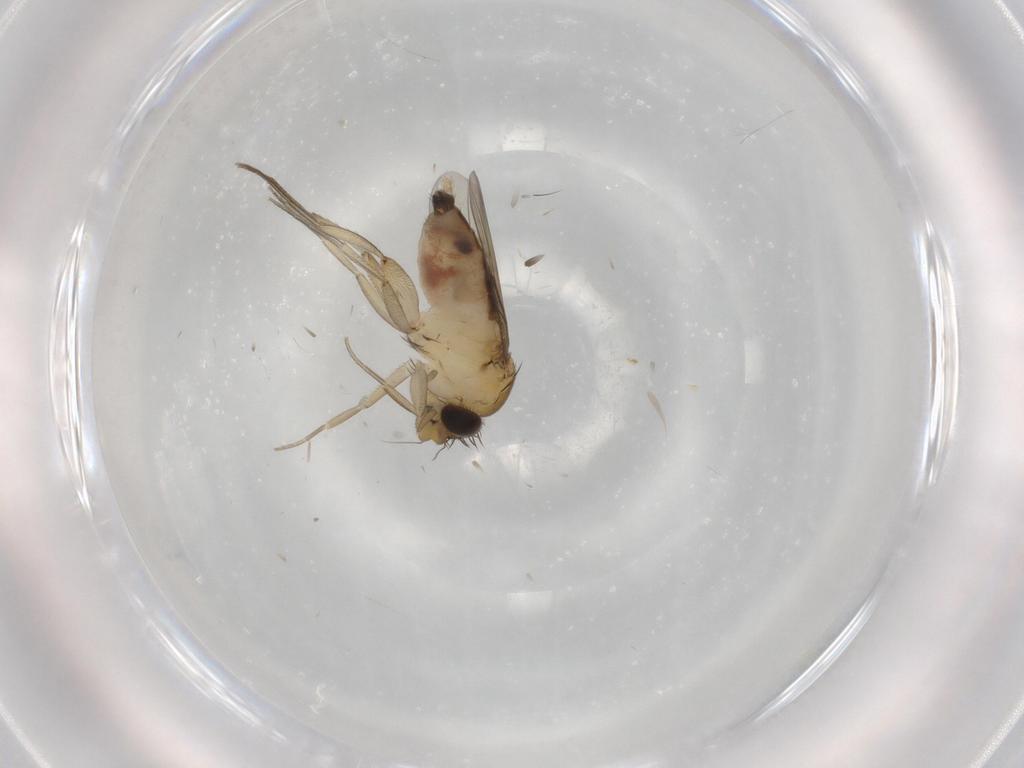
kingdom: Animalia
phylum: Arthropoda
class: Insecta
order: Diptera
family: Phoridae
